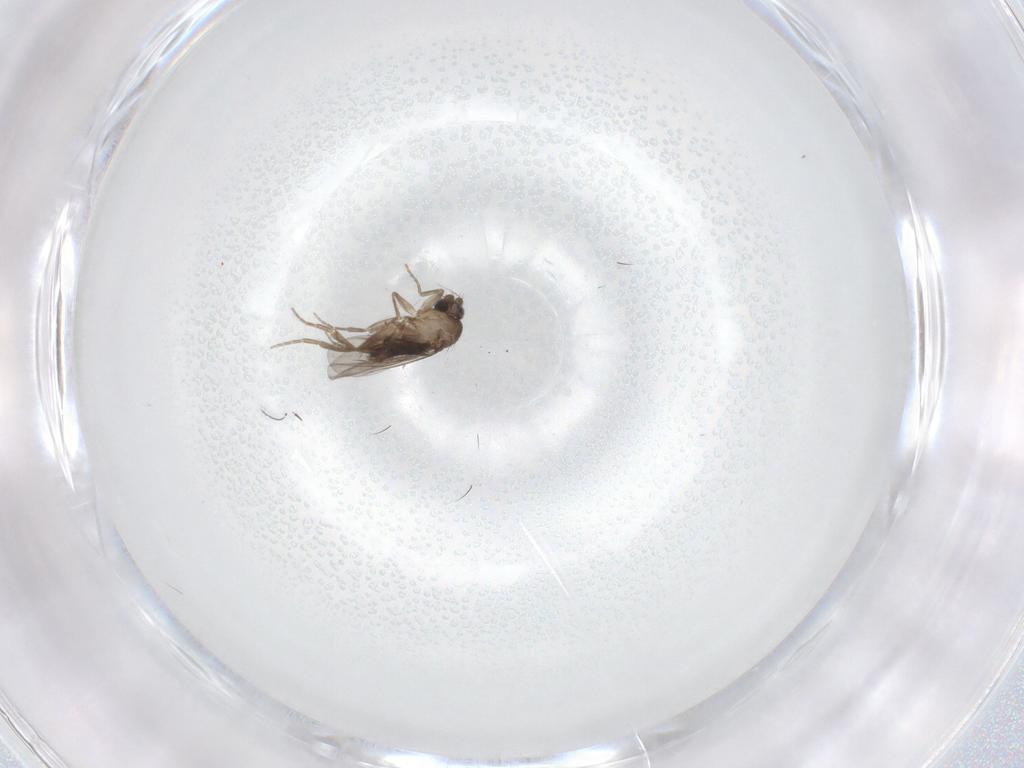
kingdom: Animalia
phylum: Arthropoda
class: Insecta
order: Diptera
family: Phoridae
